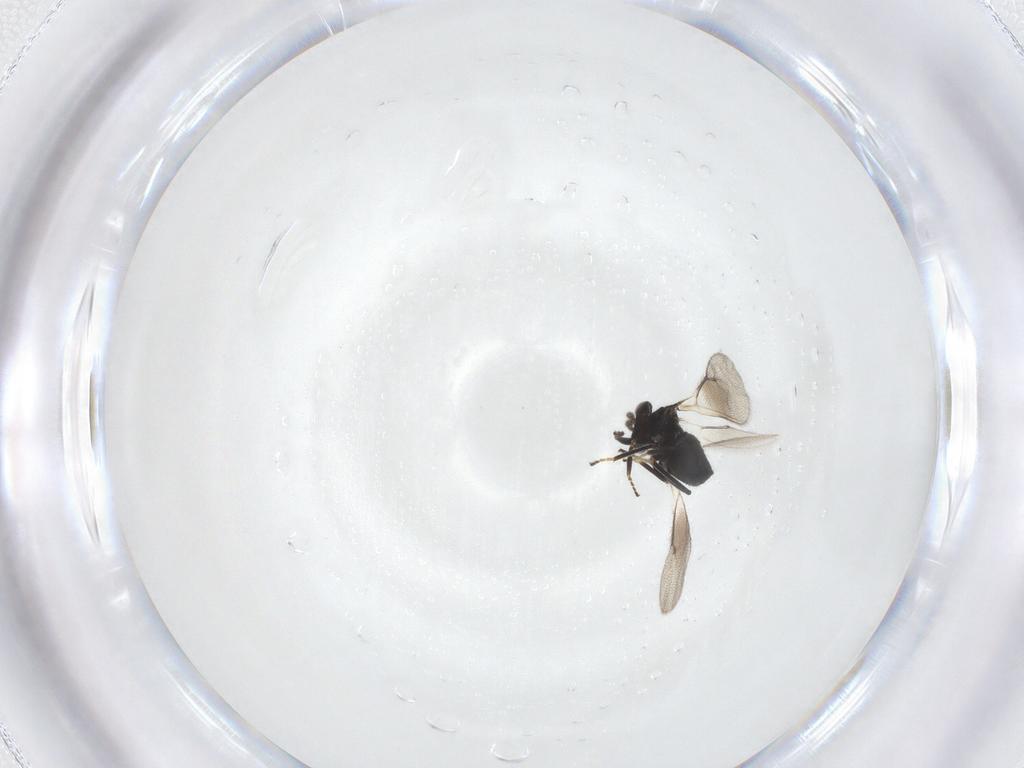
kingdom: Animalia
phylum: Arthropoda
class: Insecta
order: Hymenoptera
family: Eulophidae
